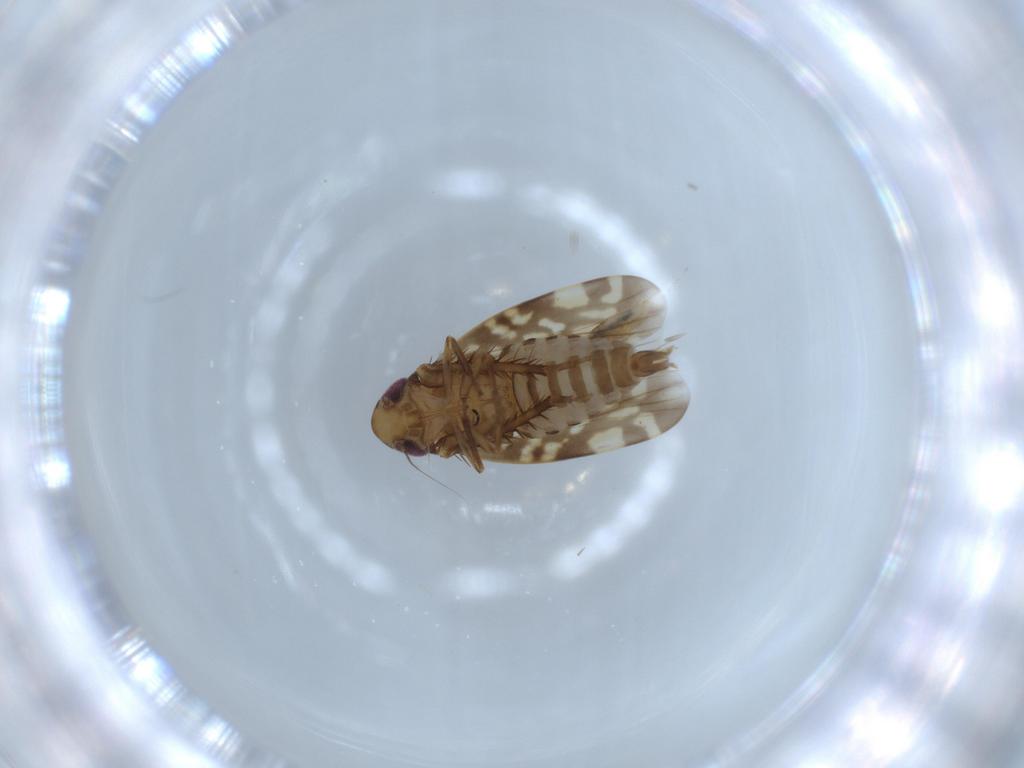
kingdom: Animalia
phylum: Arthropoda
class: Insecta
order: Hemiptera
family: Cicadellidae
